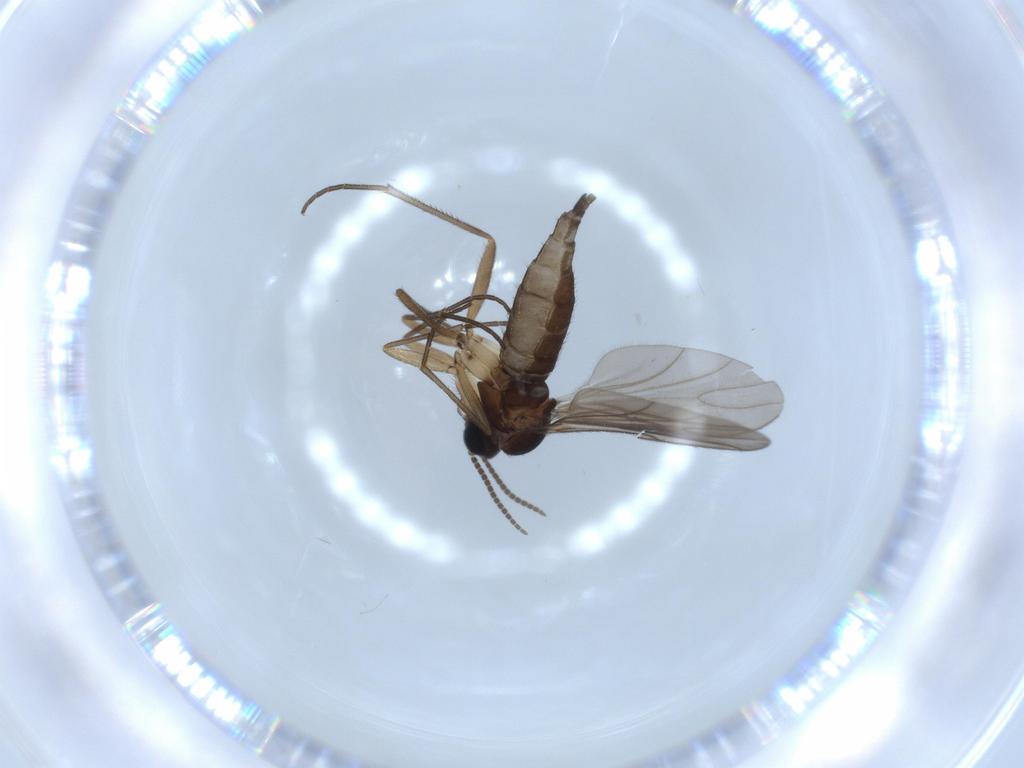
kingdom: Animalia
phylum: Arthropoda
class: Insecta
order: Diptera
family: Sciaridae
